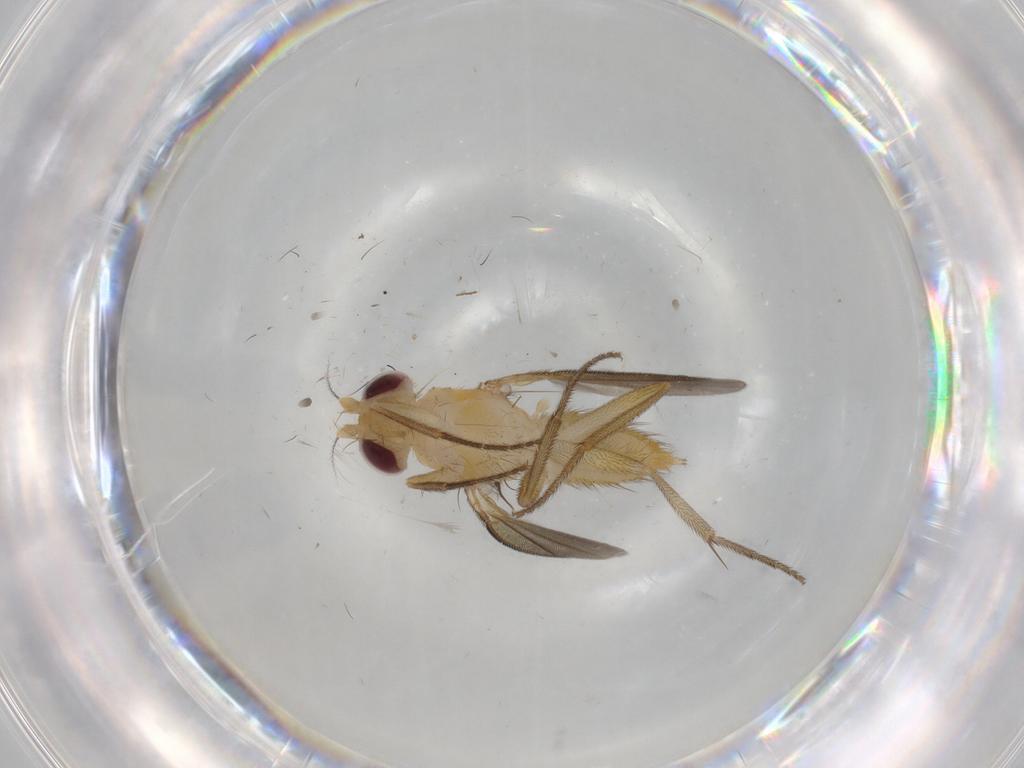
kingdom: Animalia
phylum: Arthropoda
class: Insecta
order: Diptera
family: Clusiidae
